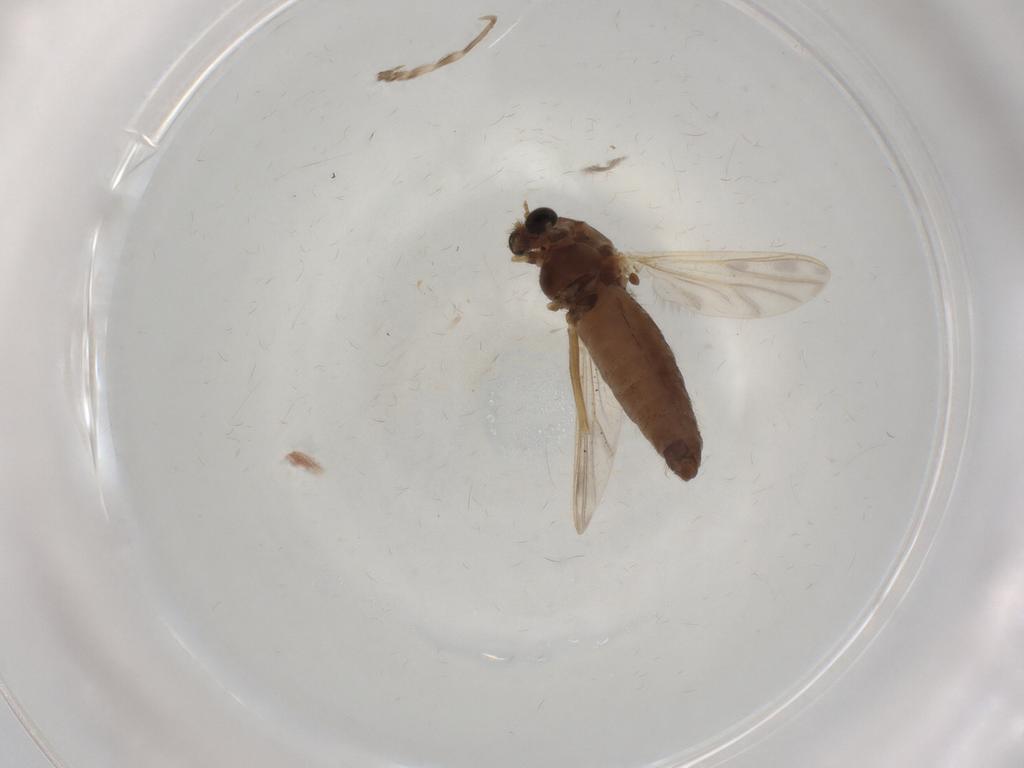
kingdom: Animalia
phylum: Arthropoda
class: Insecta
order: Diptera
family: Chironomidae
